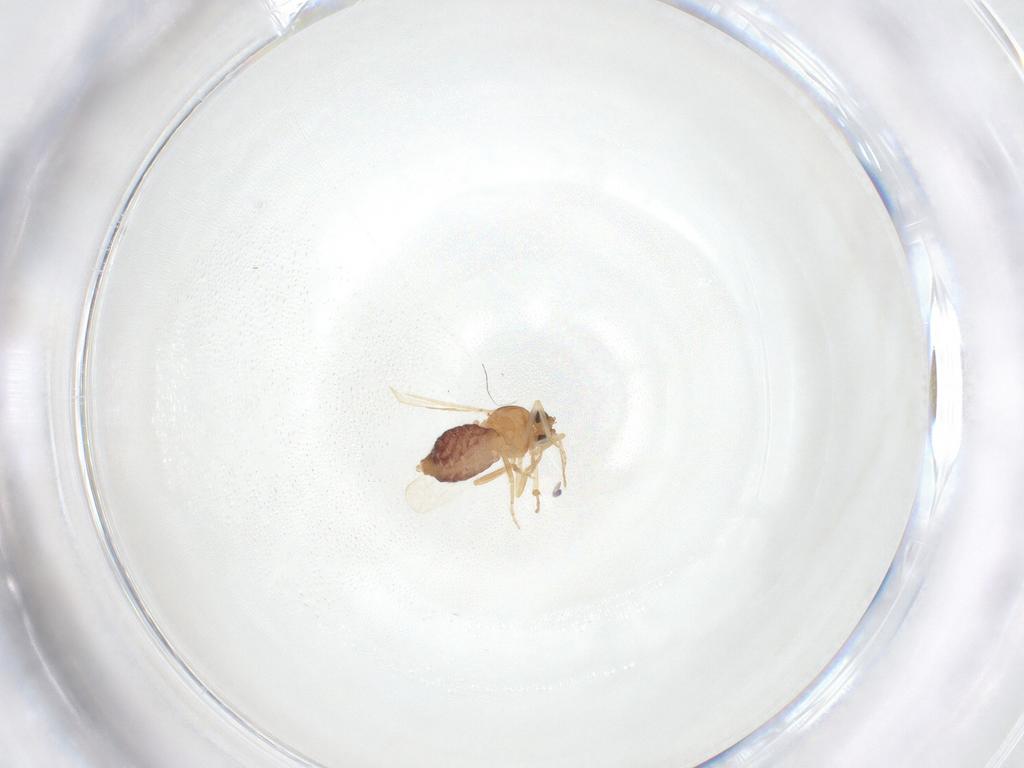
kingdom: Animalia
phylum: Arthropoda
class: Insecta
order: Diptera
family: Ceratopogonidae
